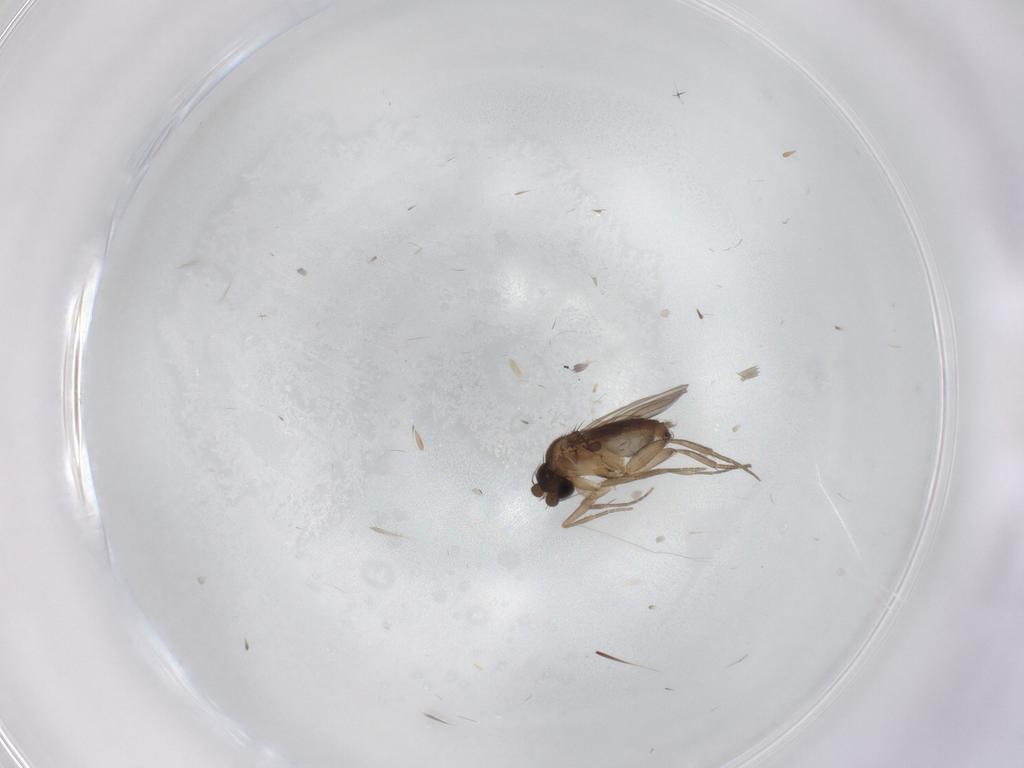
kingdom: Animalia
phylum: Arthropoda
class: Insecta
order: Diptera
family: Phoridae
